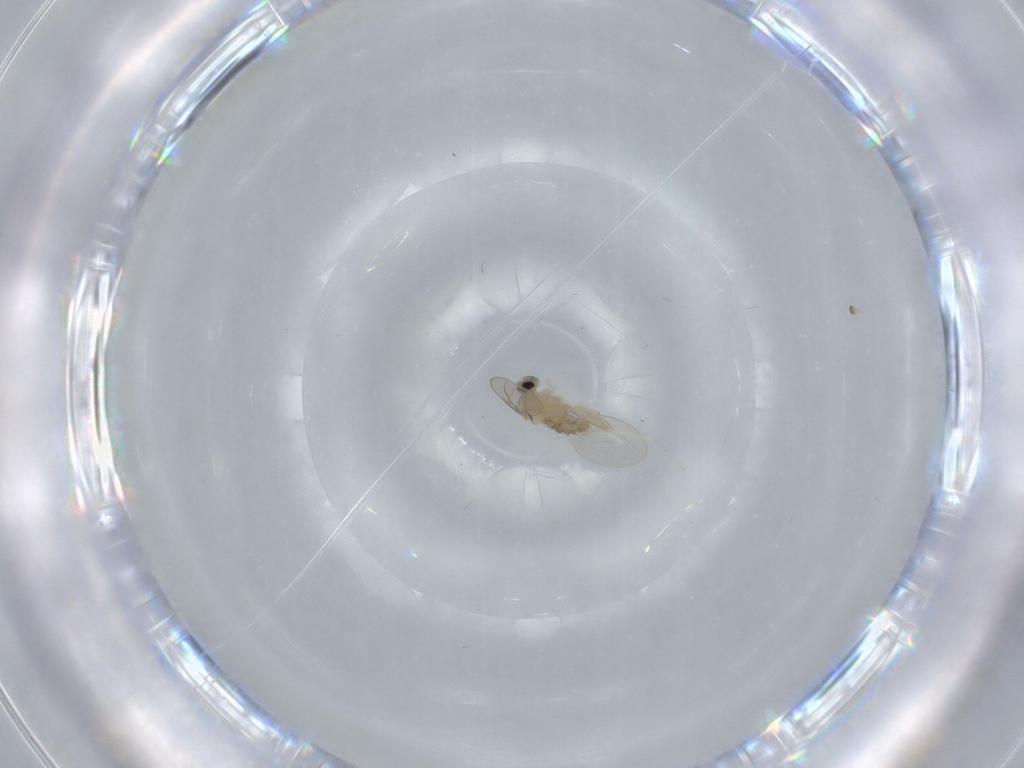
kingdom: Animalia
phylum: Arthropoda
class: Insecta
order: Diptera
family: Cecidomyiidae
